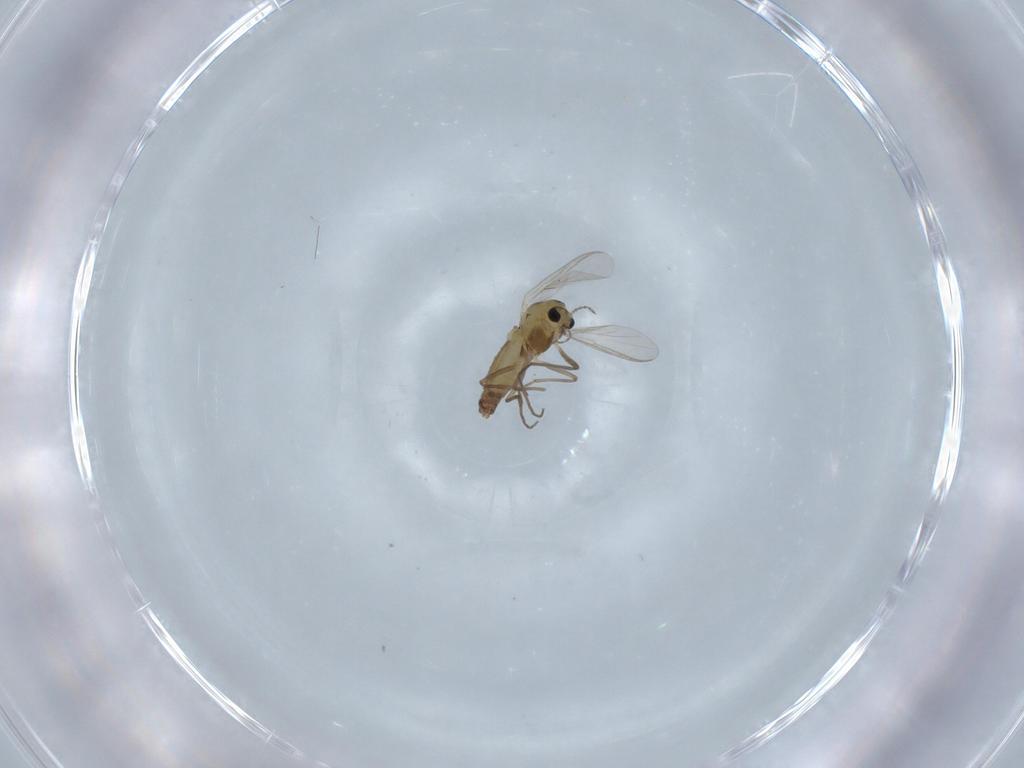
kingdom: Animalia
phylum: Arthropoda
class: Insecta
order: Diptera
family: Chironomidae
